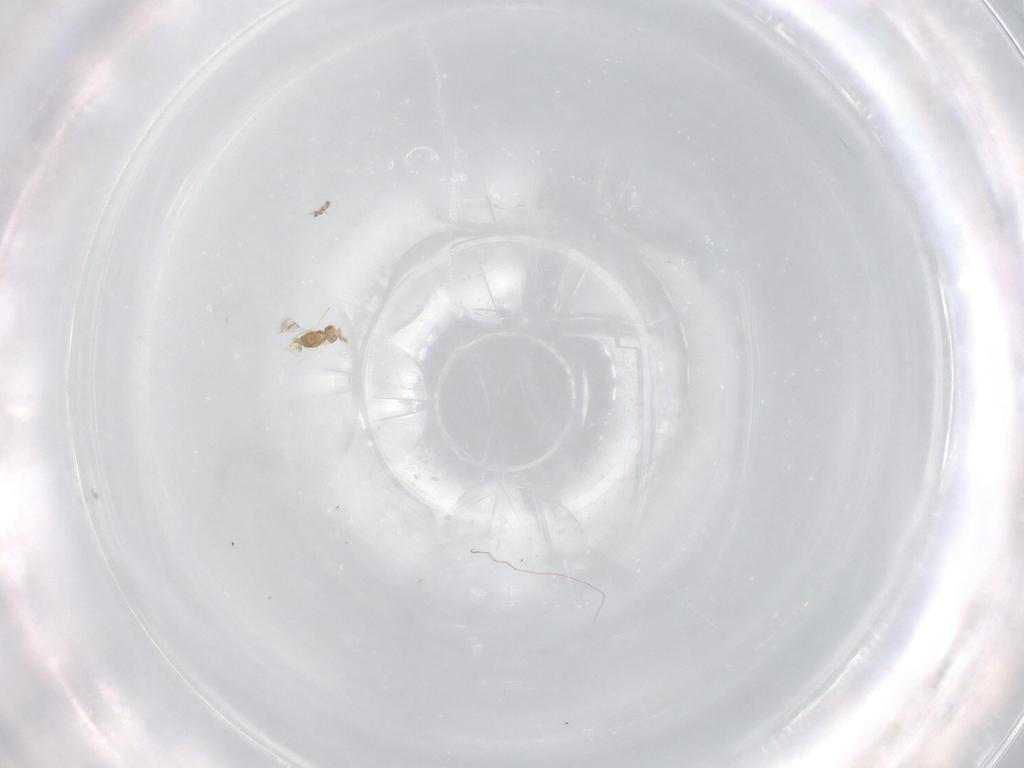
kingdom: Animalia
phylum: Arthropoda
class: Insecta
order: Hymenoptera
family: Eulophidae
